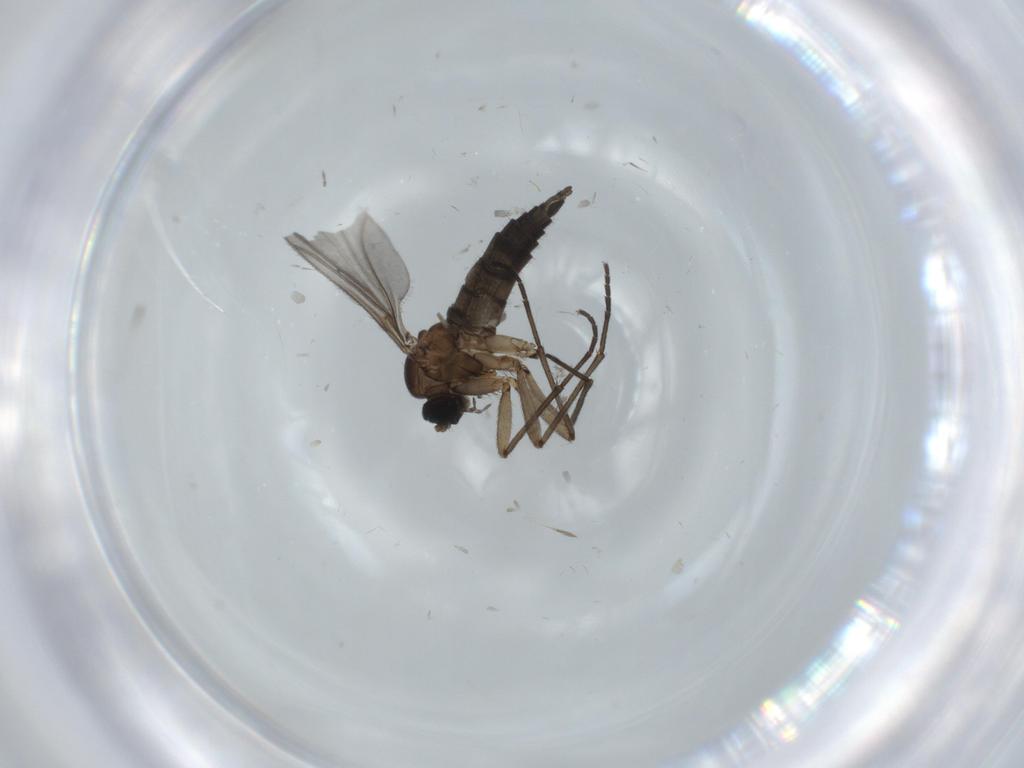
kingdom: Animalia
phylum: Arthropoda
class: Insecta
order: Diptera
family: Sciaridae
